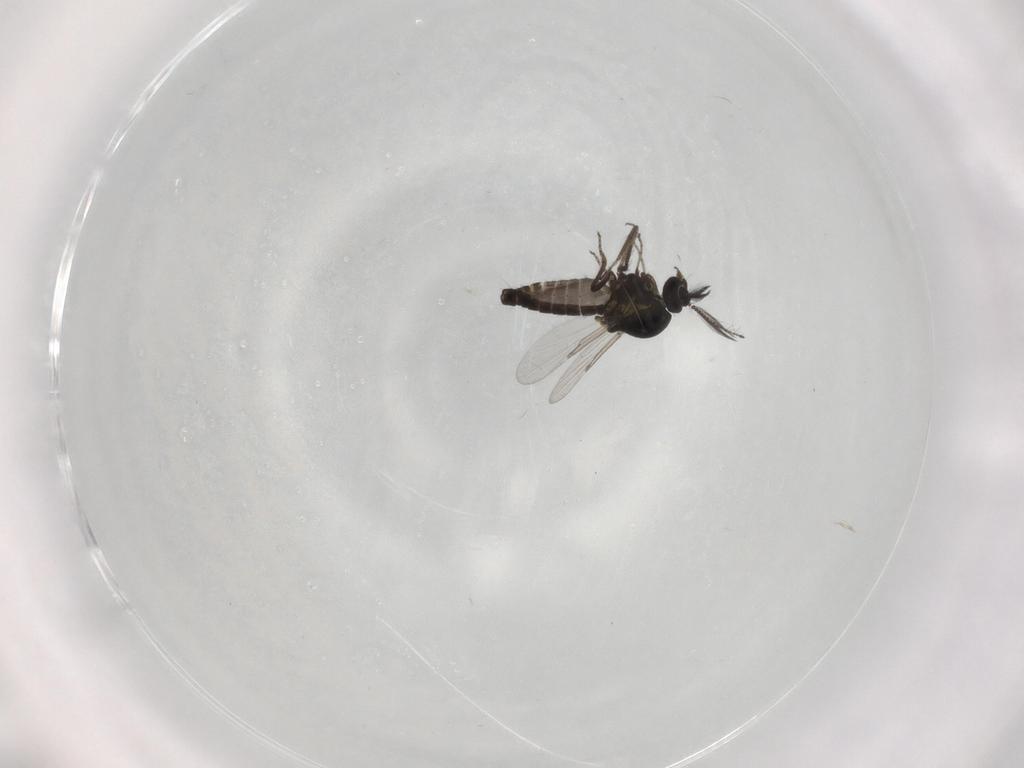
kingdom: Animalia
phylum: Arthropoda
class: Insecta
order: Diptera
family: Ceratopogonidae
